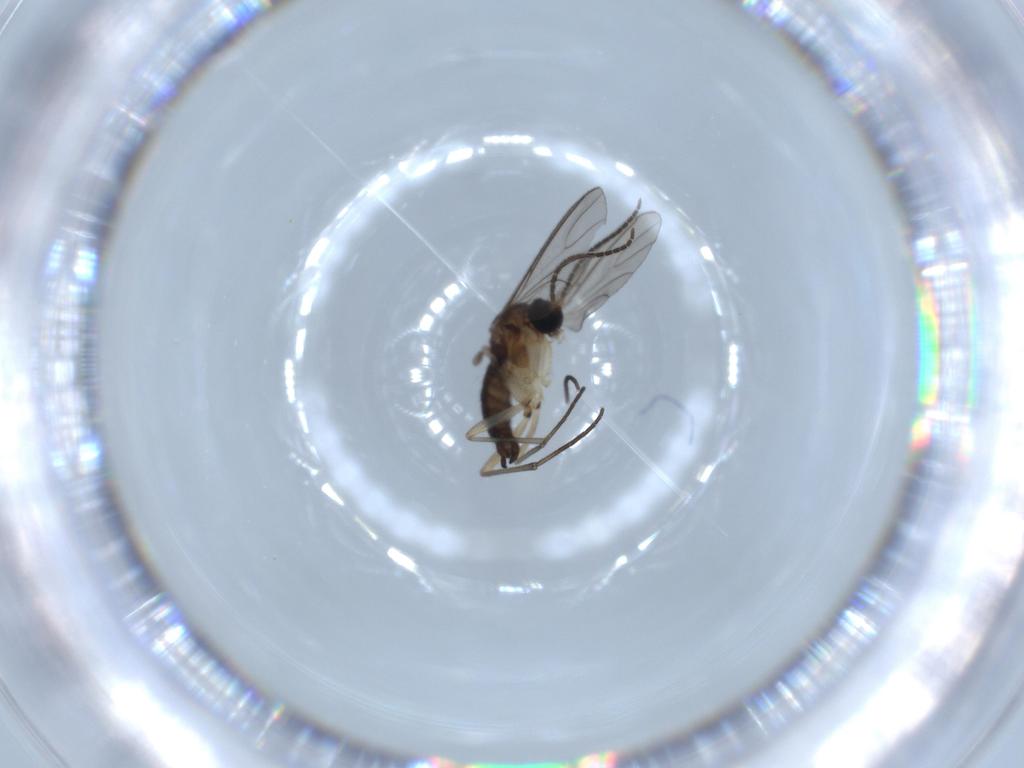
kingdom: Animalia
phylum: Arthropoda
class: Insecta
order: Diptera
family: Sciaridae
